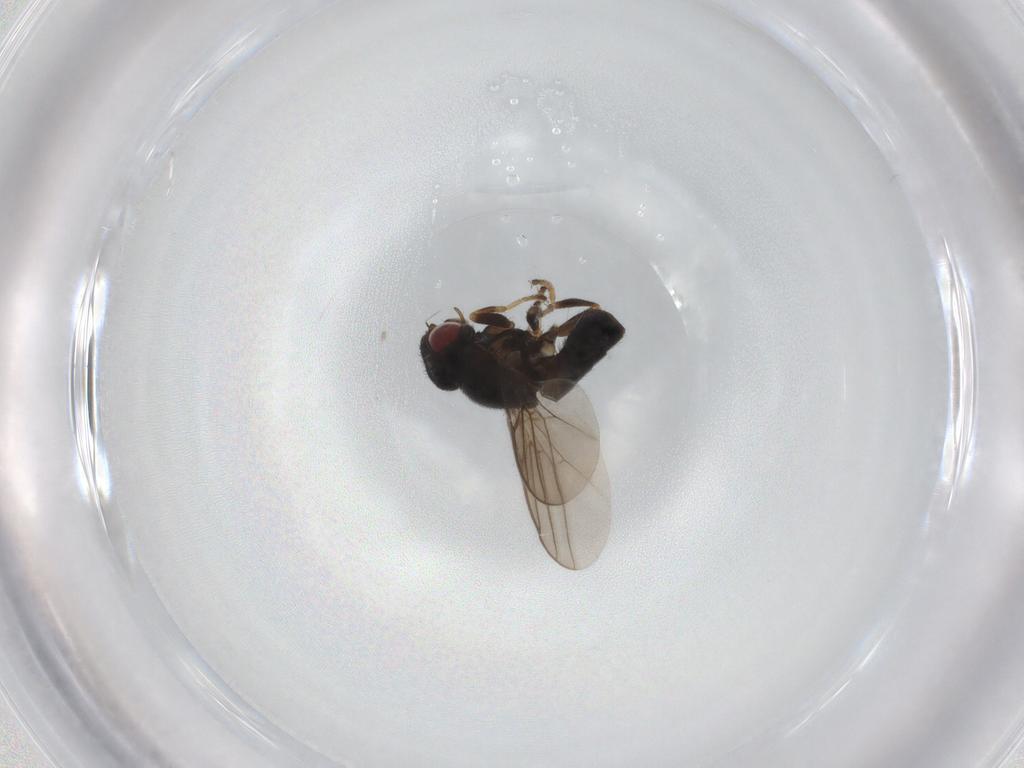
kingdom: Animalia
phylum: Arthropoda
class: Insecta
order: Diptera
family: Chloropidae
